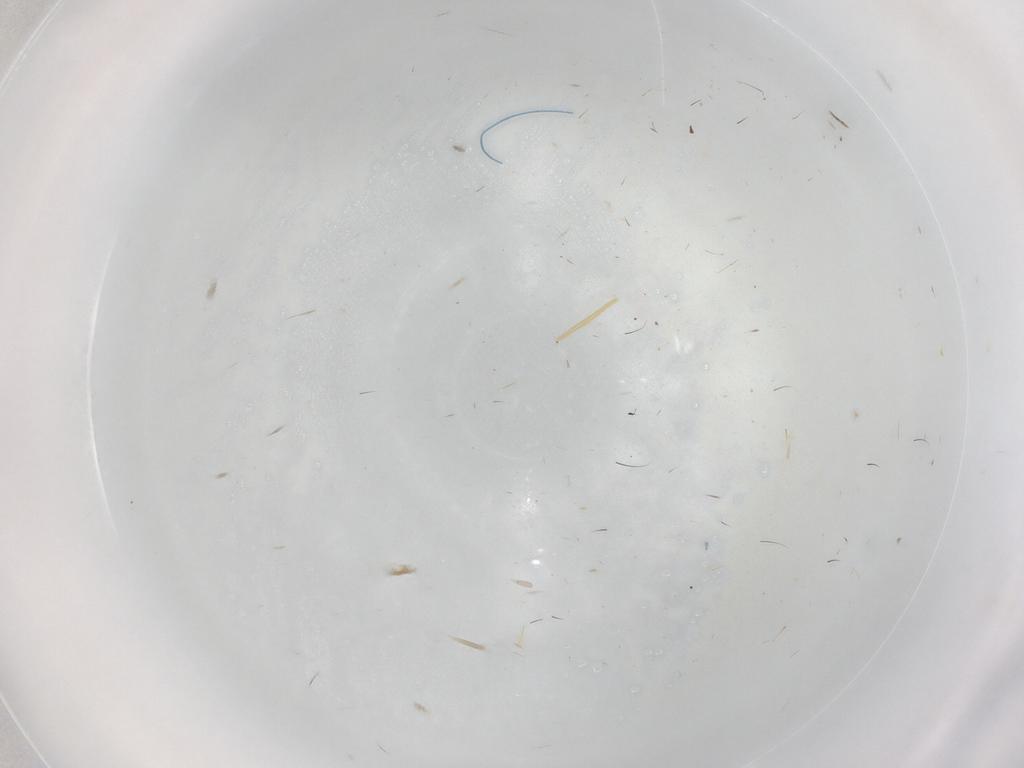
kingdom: Animalia
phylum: Arthropoda
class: Insecta
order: Diptera
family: Anthomyiidae
